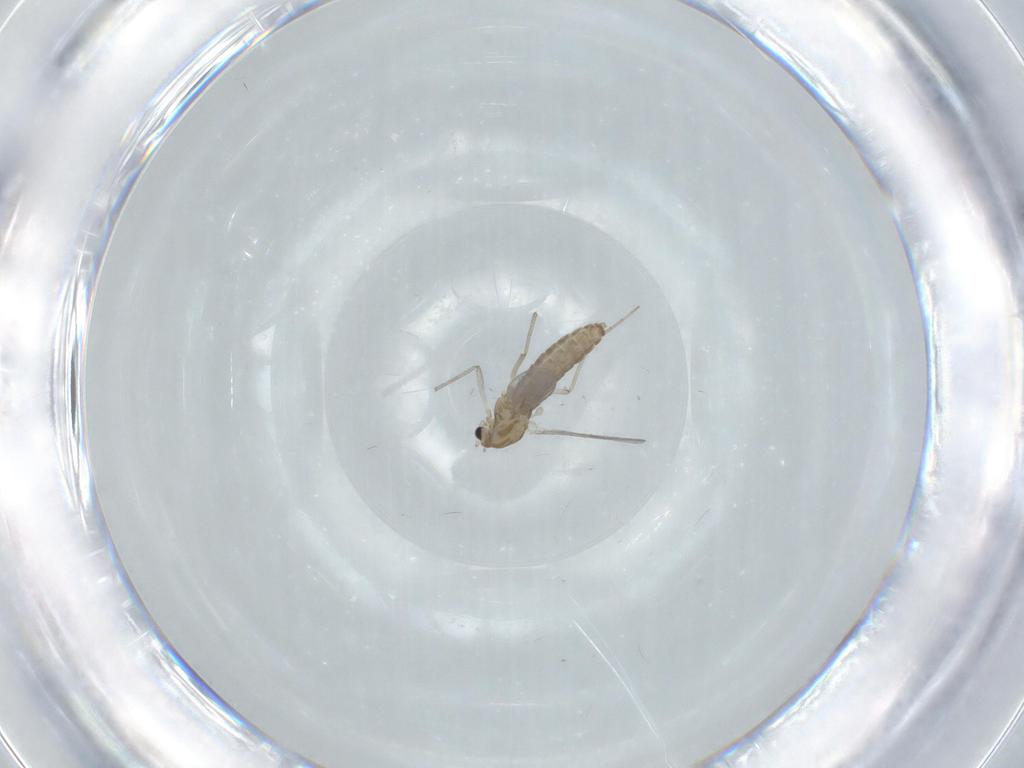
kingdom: Animalia
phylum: Arthropoda
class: Insecta
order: Diptera
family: Chironomidae
